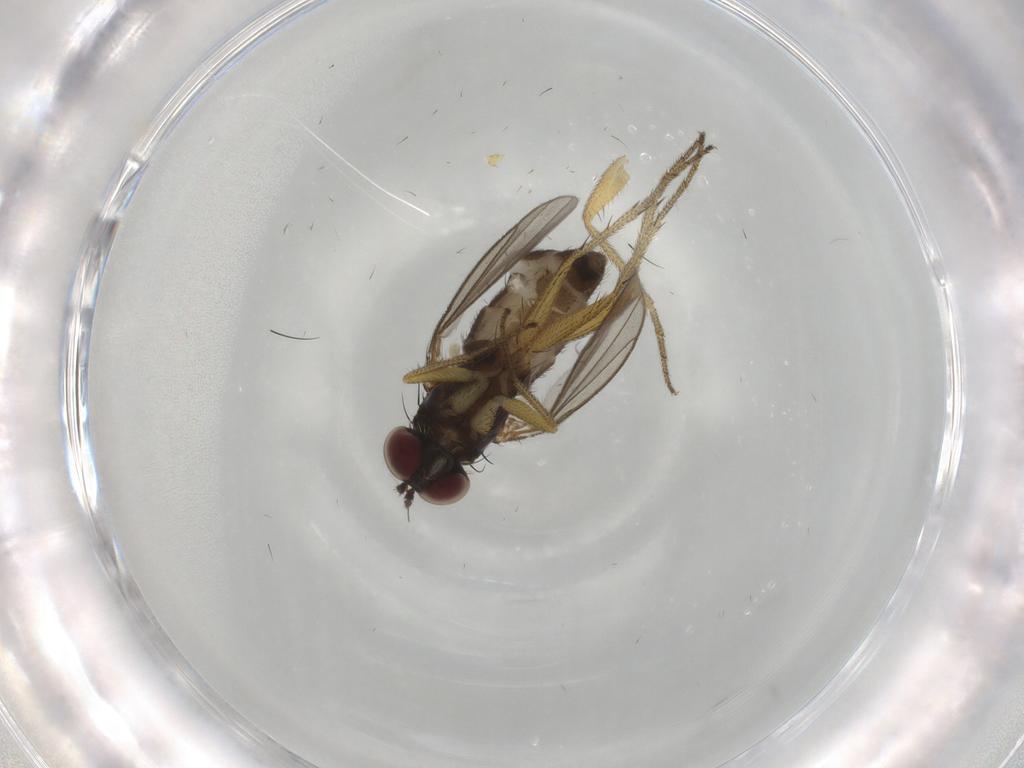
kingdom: Animalia
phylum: Arthropoda
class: Insecta
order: Diptera
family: Dolichopodidae
